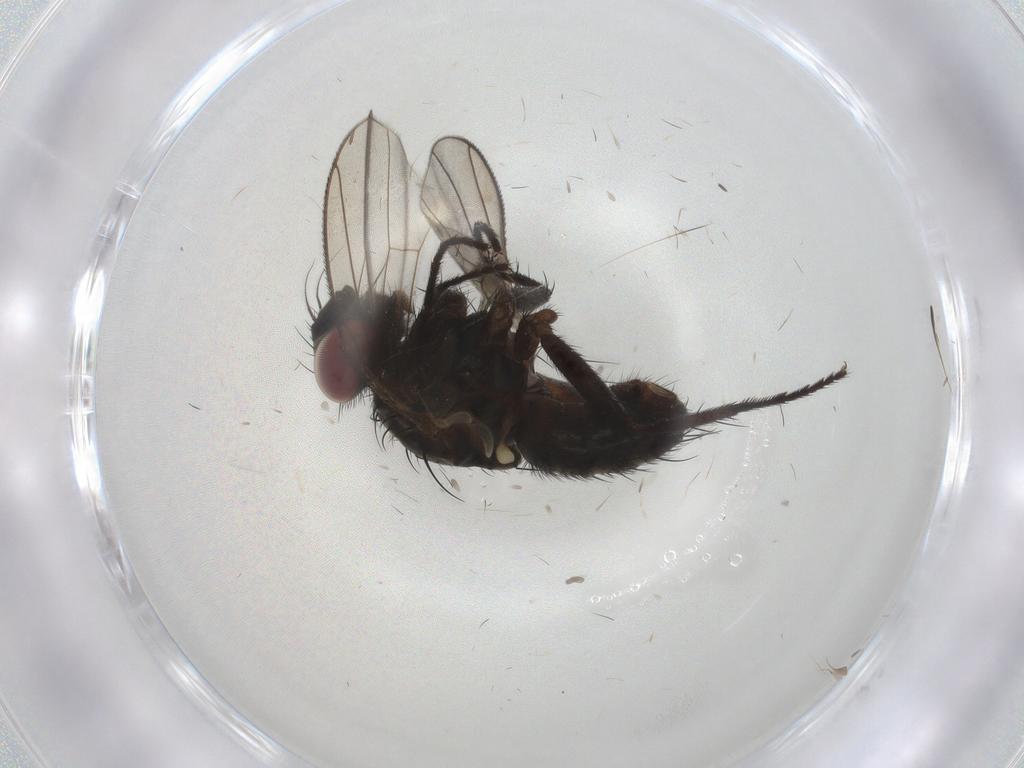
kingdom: Animalia
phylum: Arthropoda
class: Insecta
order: Diptera
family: Muscidae
